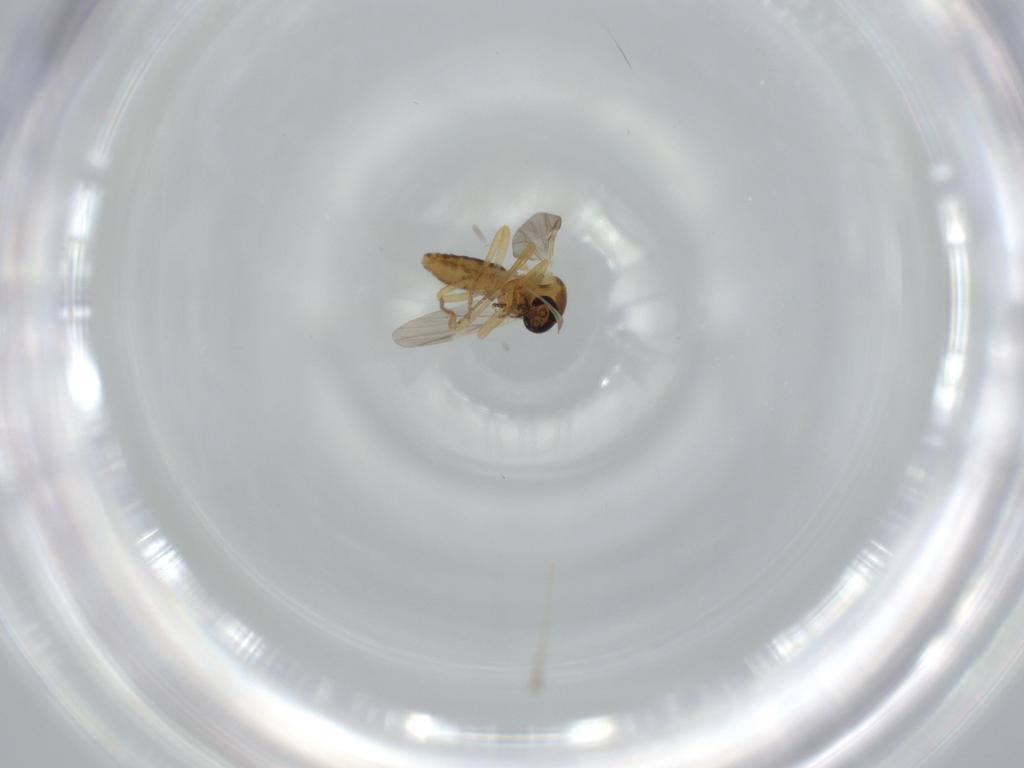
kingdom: Animalia
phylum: Arthropoda
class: Insecta
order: Diptera
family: Ceratopogonidae
